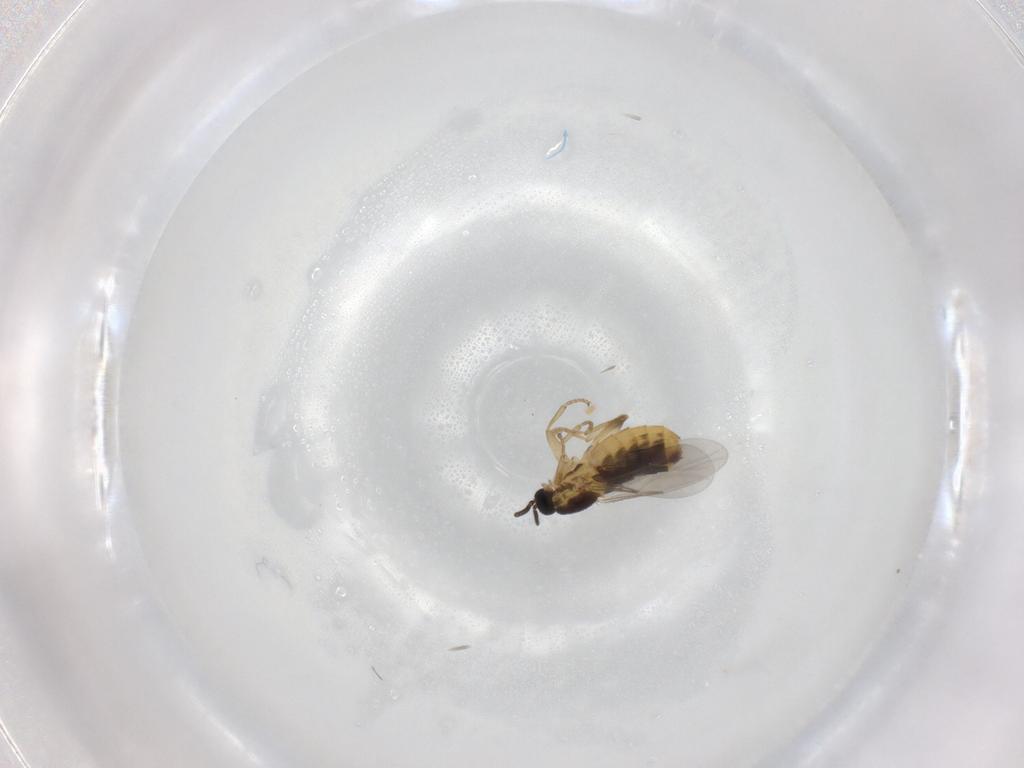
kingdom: Animalia
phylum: Arthropoda
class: Insecta
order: Diptera
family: Scatopsidae
